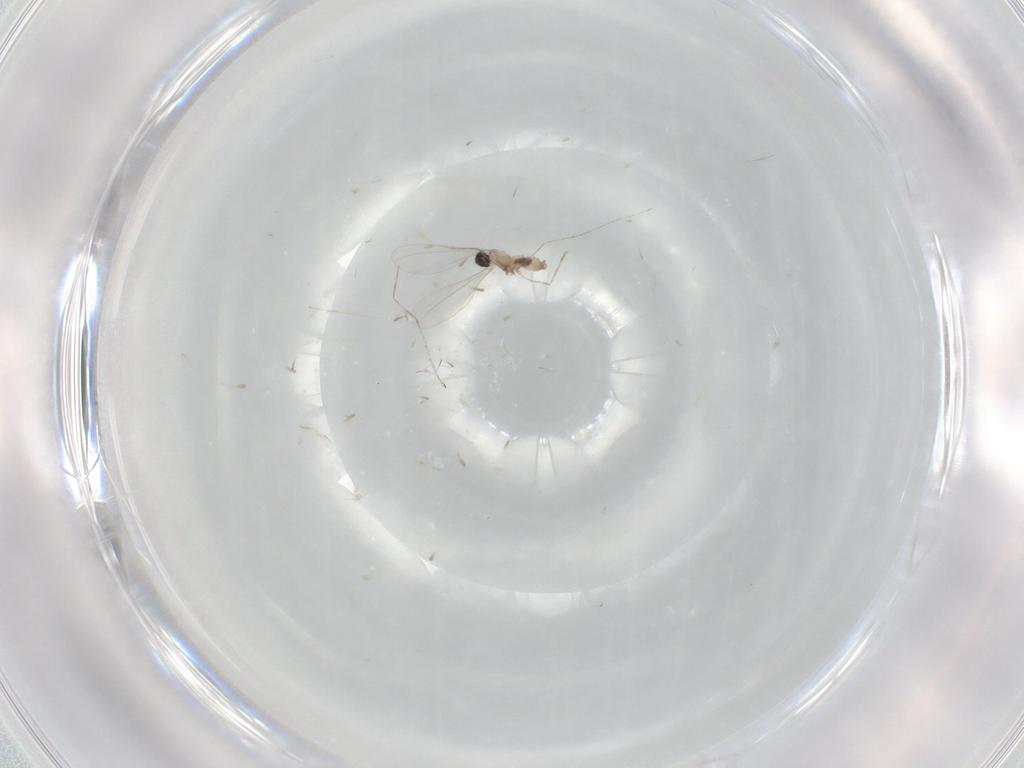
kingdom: Animalia
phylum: Arthropoda
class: Insecta
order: Diptera
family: Cecidomyiidae
